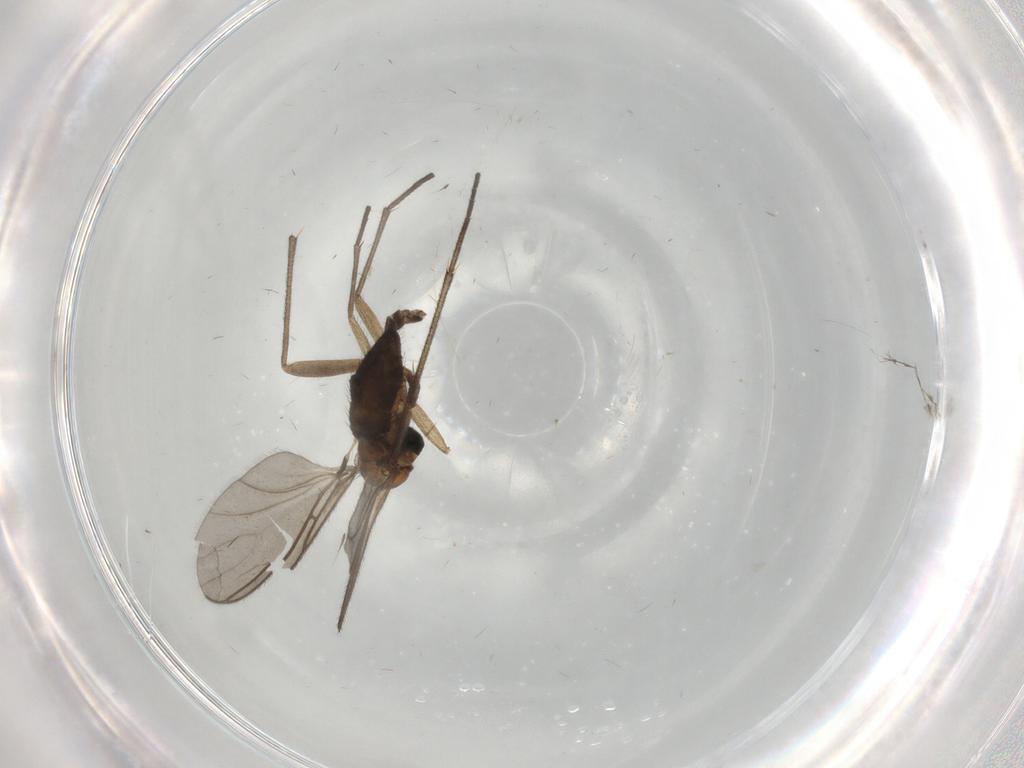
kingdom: Animalia
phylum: Arthropoda
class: Insecta
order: Diptera
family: Sciaridae
